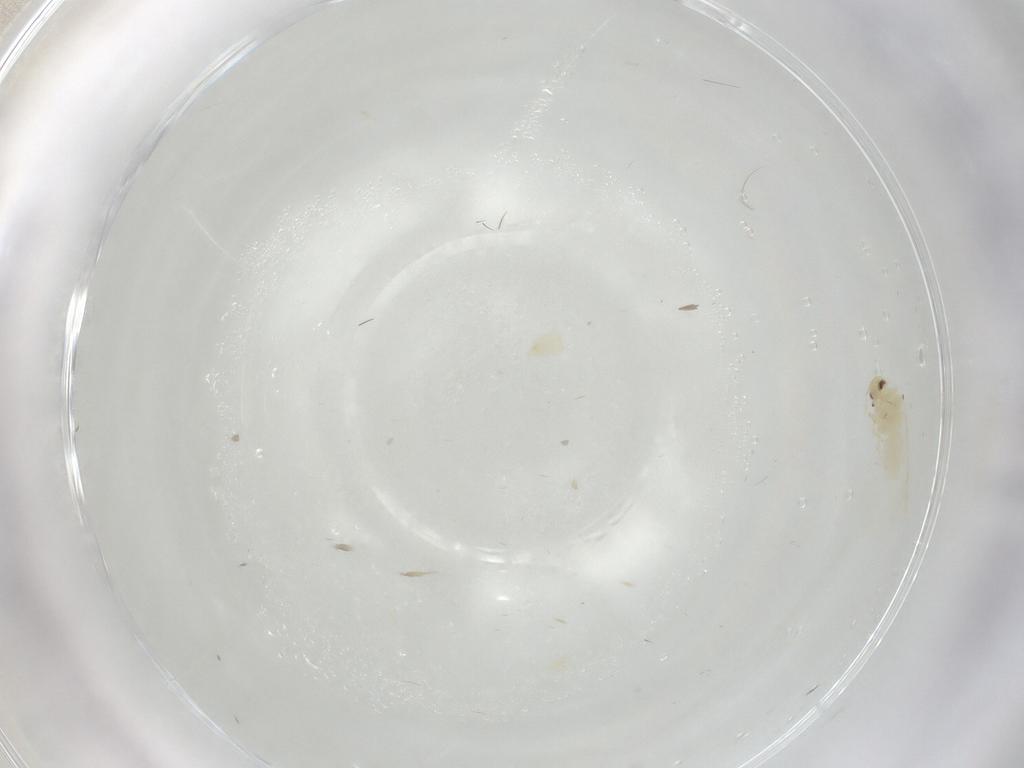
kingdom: Animalia
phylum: Arthropoda
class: Insecta
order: Hemiptera
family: Aleyrodidae
